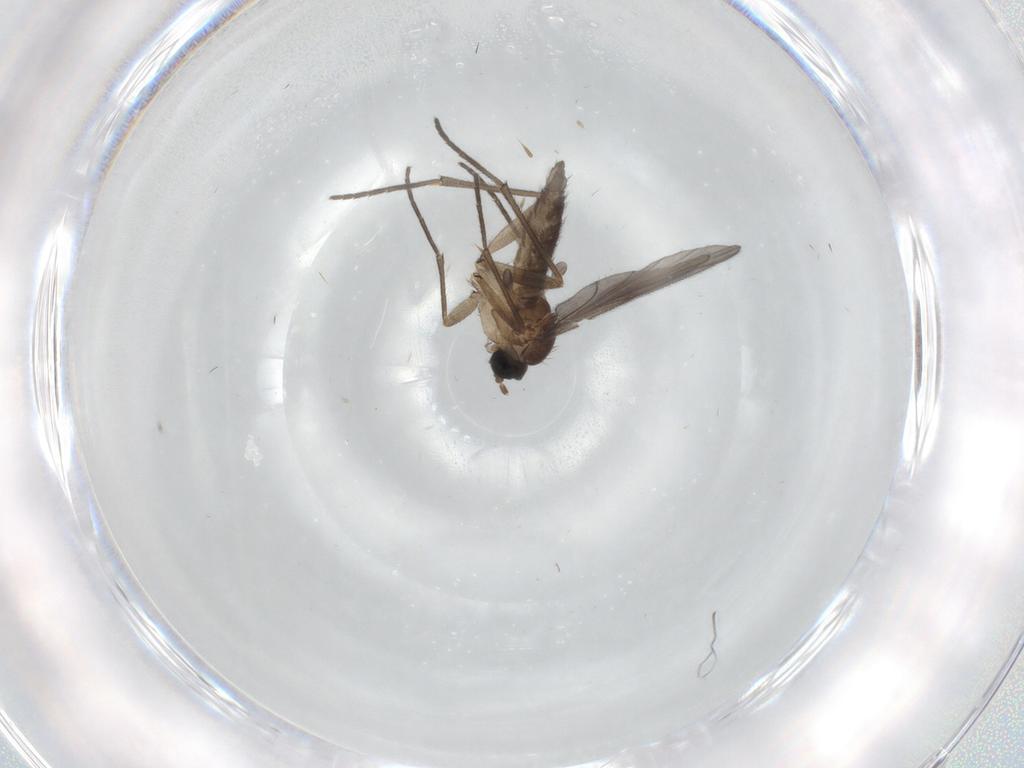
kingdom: Animalia
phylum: Arthropoda
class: Insecta
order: Diptera
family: Sciaridae
